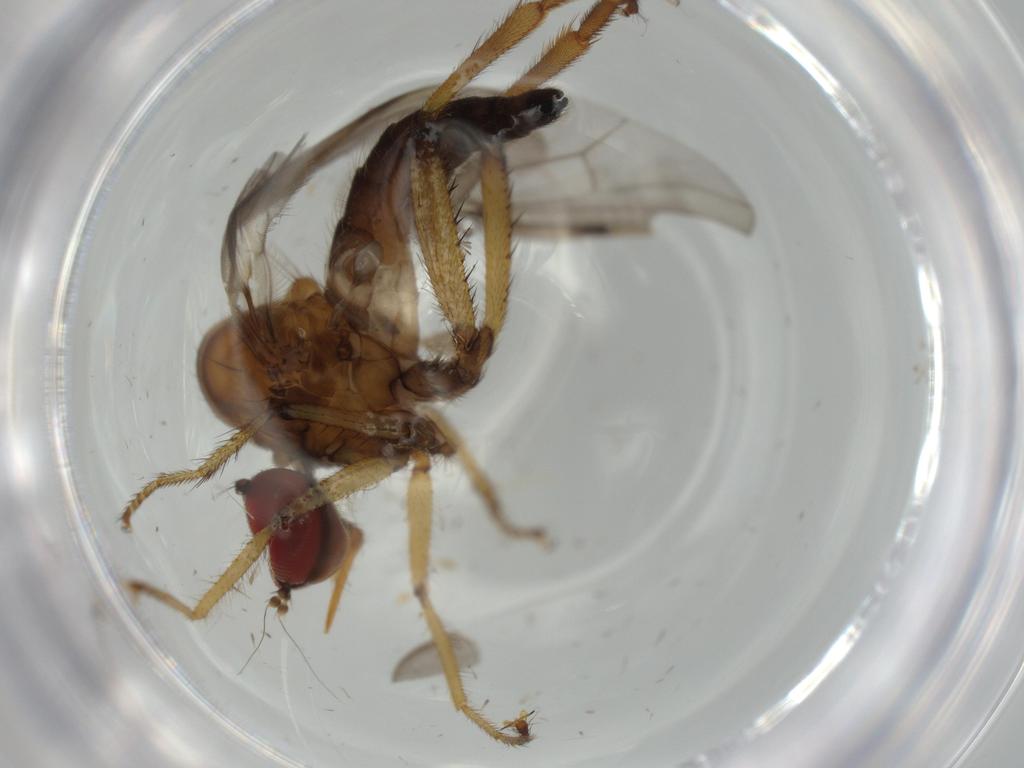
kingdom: Animalia
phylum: Arthropoda
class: Insecta
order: Diptera
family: Hybotidae
